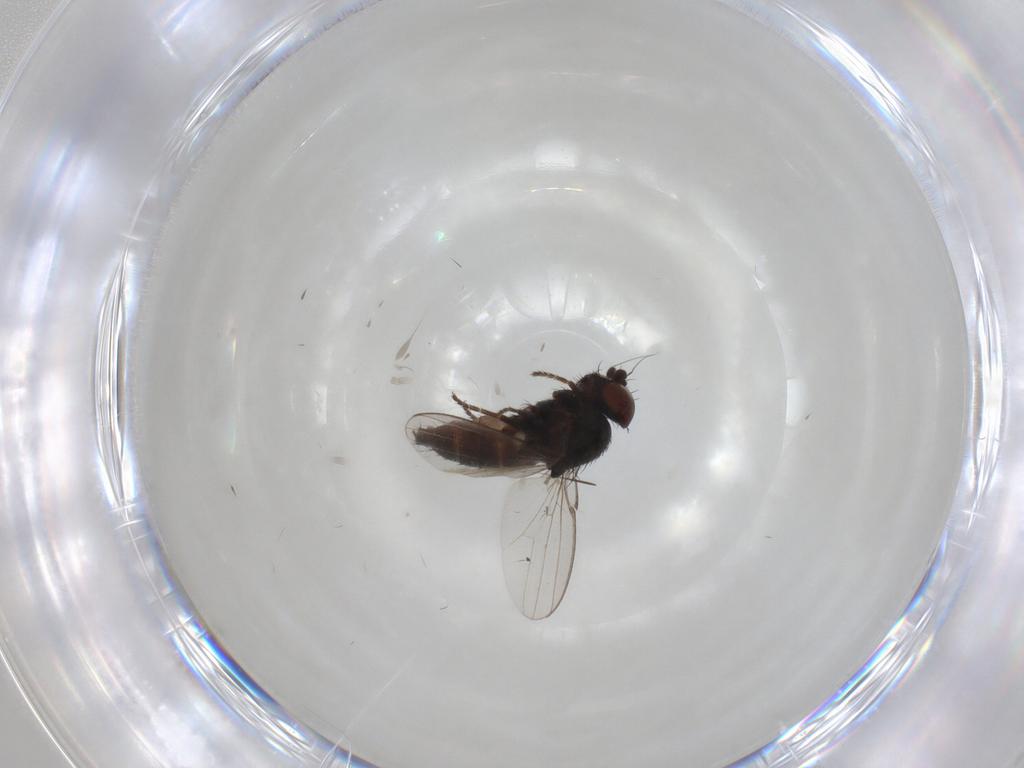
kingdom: Animalia
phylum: Arthropoda
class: Insecta
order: Diptera
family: Milichiidae
